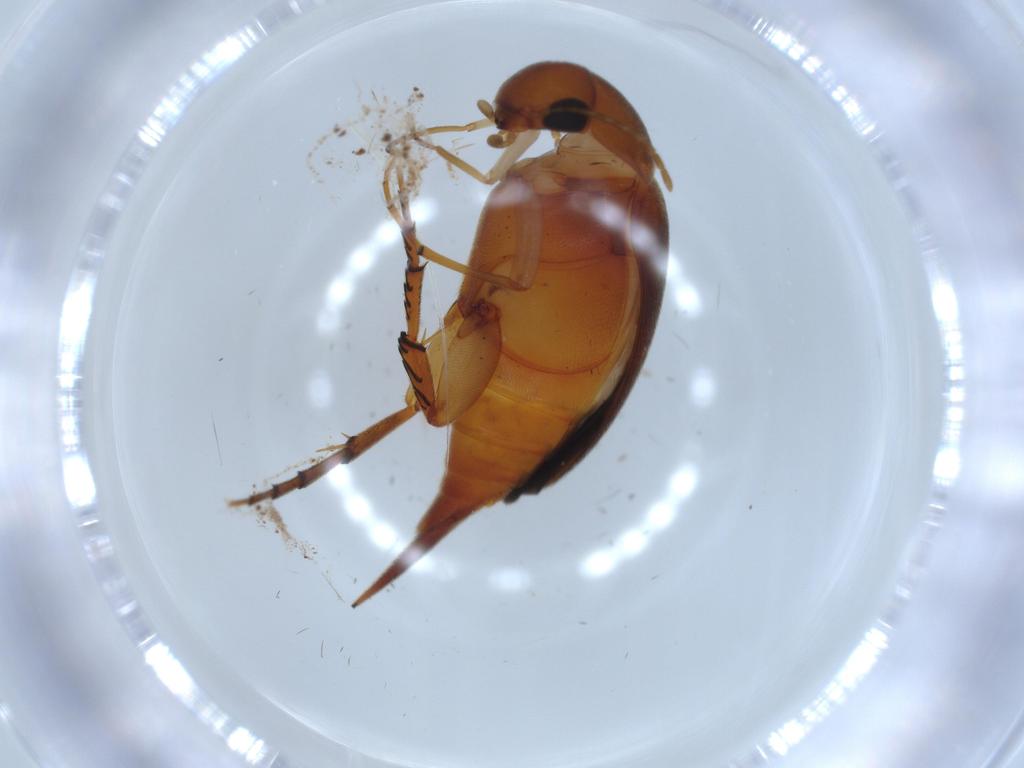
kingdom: Animalia
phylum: Arthropoda
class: Insecta
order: Coleoptera
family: Mordellidae
